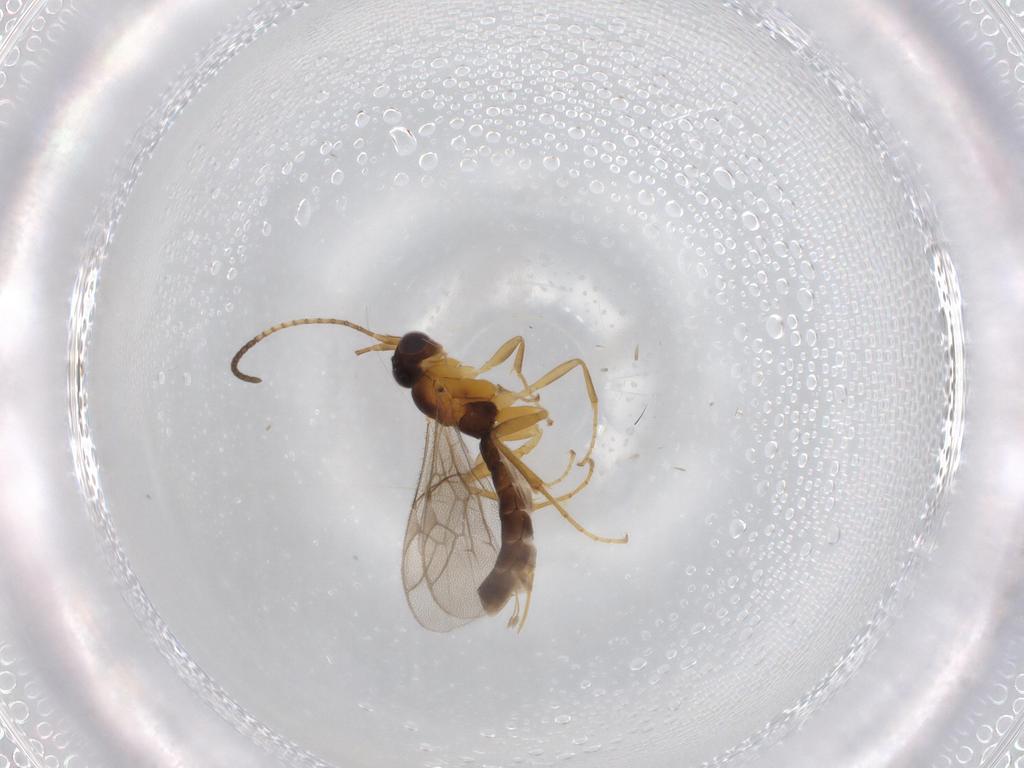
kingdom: Animalia
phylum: Arthropoda
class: Insecta
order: Hymenoptera
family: Ichneumonidae
